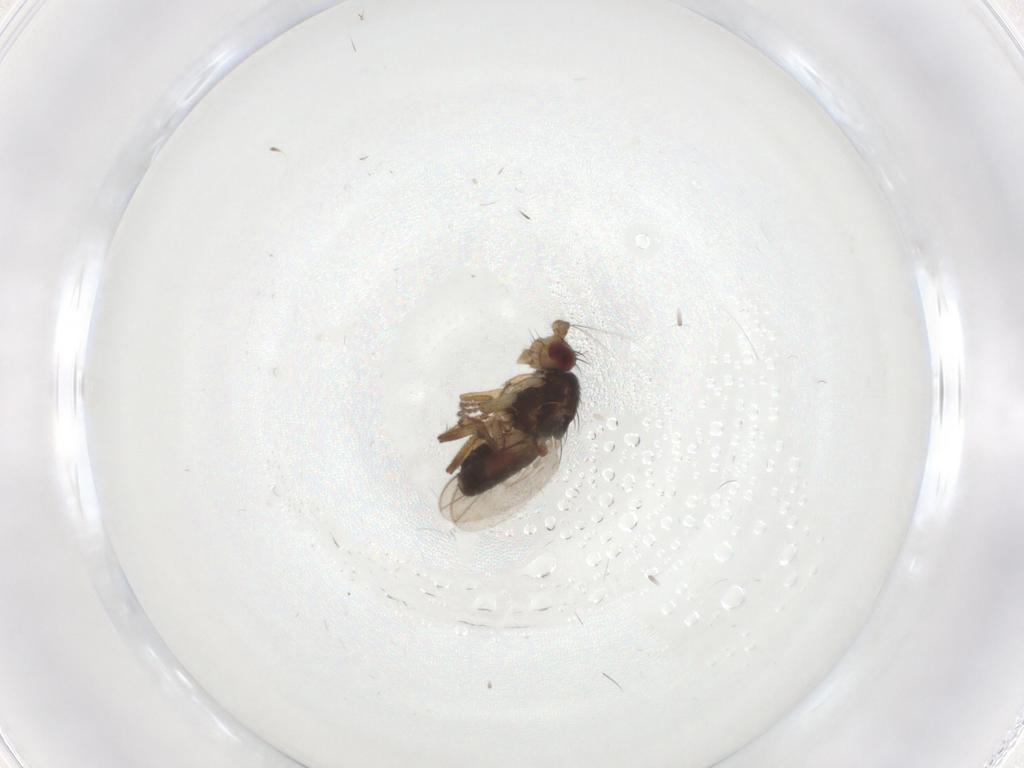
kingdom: Animalia
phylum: Arthropoda
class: Insecta
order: Diptera
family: Sphaeroceridae
